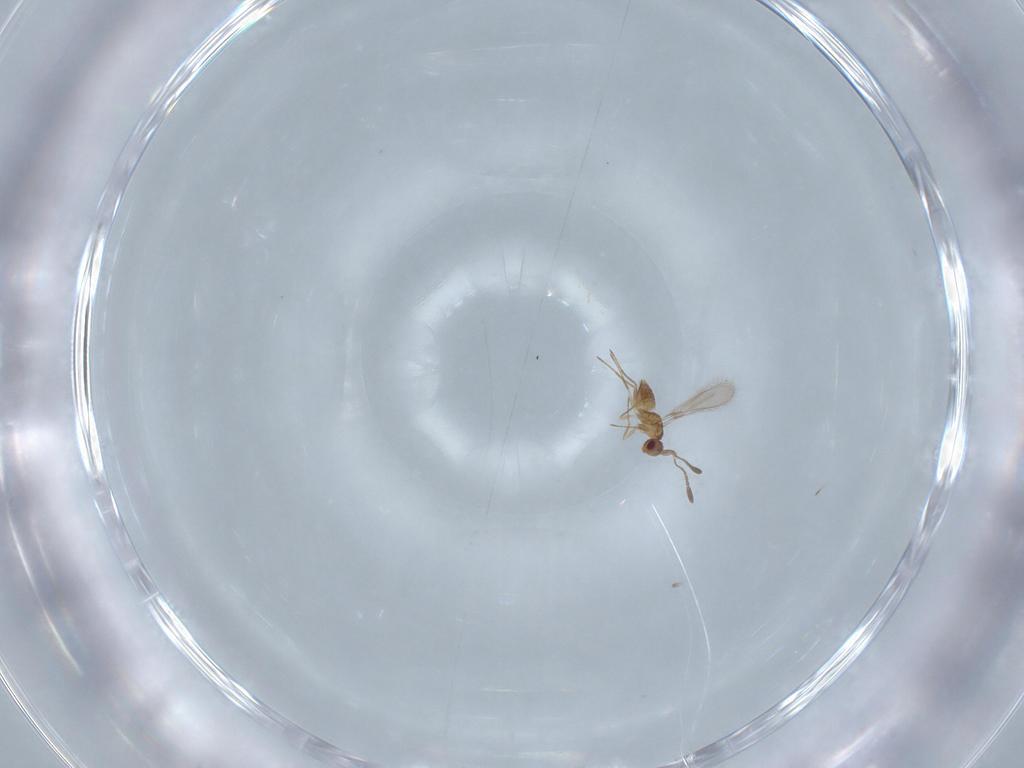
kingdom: Animalia
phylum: Arthropoda
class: Insecta
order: Hymenoptera
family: Mymaridae
